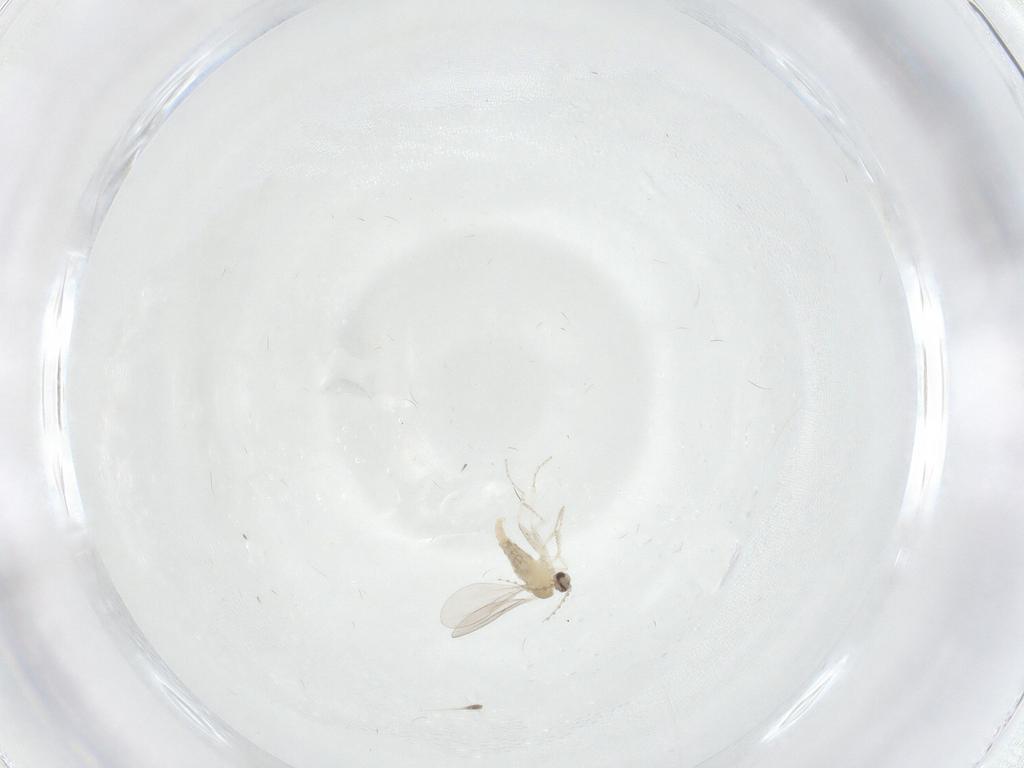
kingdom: Animalia
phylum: Arthropoda
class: Insecta
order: Diptera
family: Cecidomyiidae
